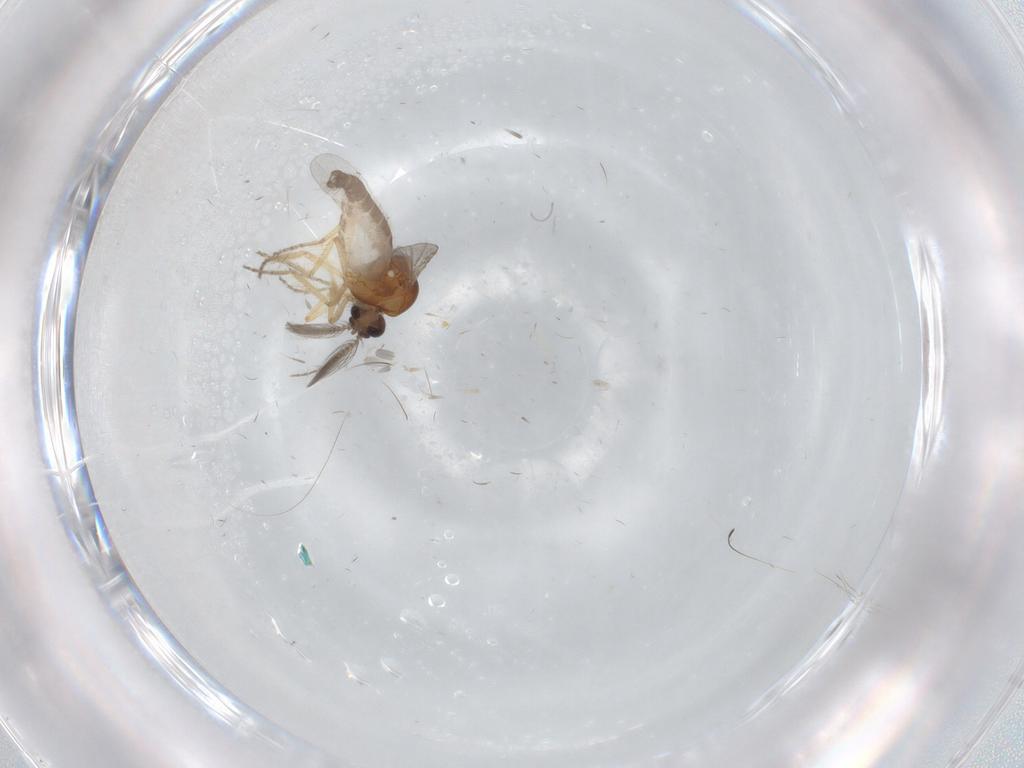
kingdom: Animalia
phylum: Arthropoda
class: Insecta
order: Diptera
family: Ceratopogonidae
